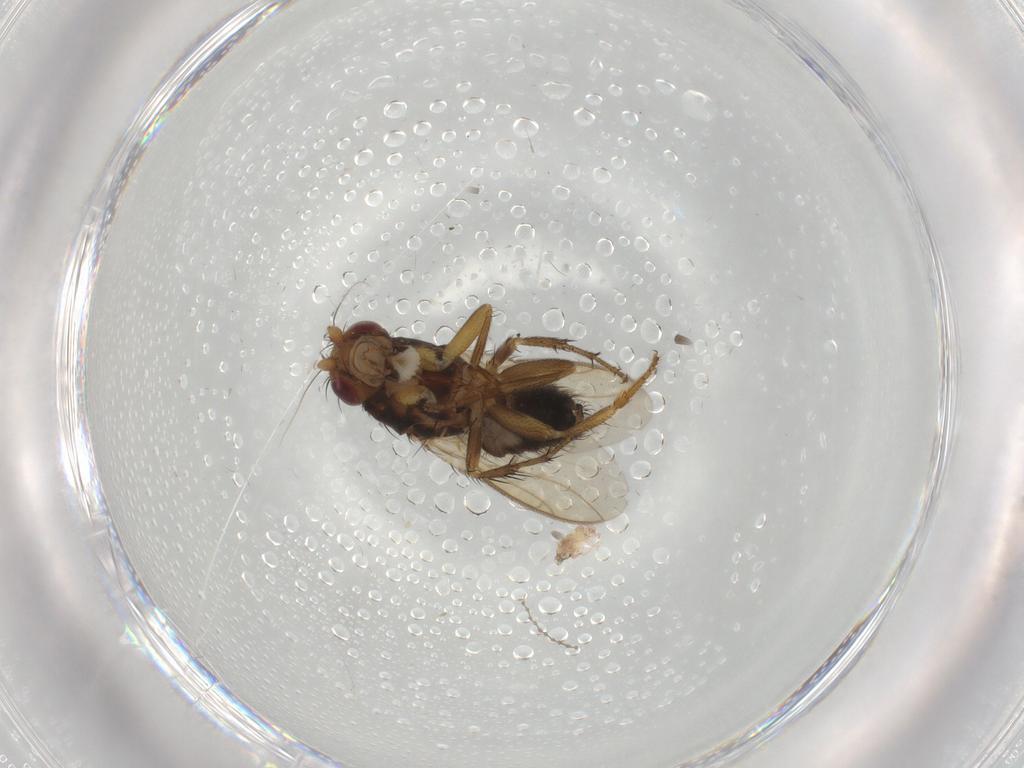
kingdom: Animalia
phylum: Arthropoda
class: Insecta
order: Diptera
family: Sphaeroceridae
